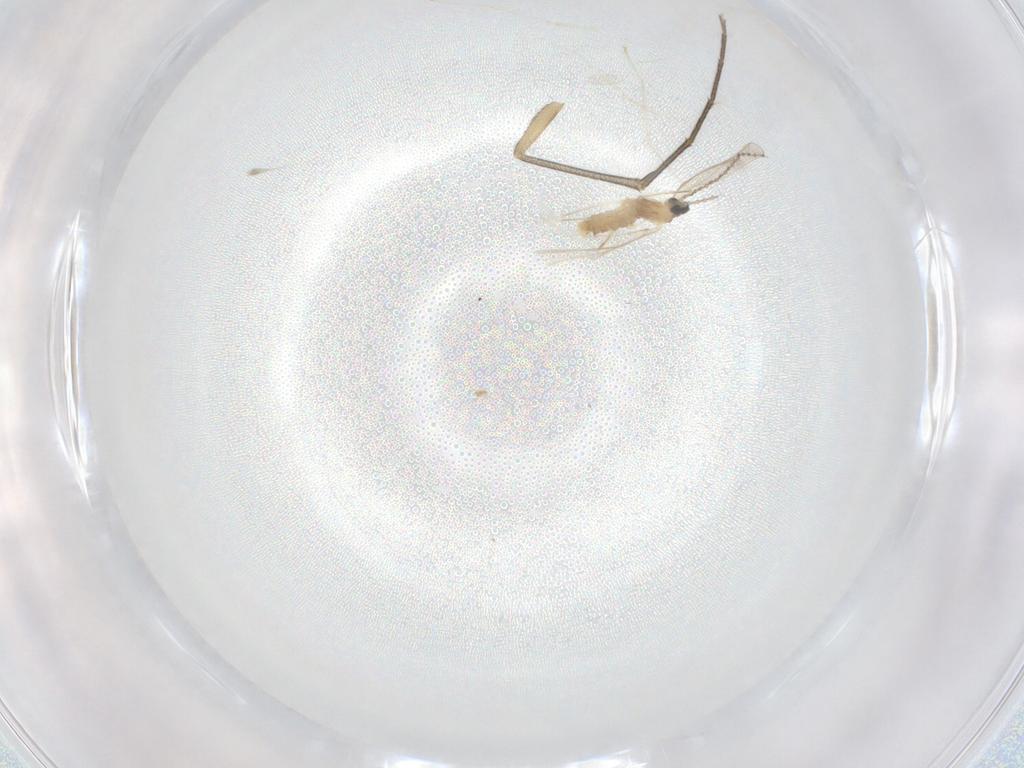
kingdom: Animalia
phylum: Arthropoda
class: Insecta
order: Diptera
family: Cecidomyiidae
